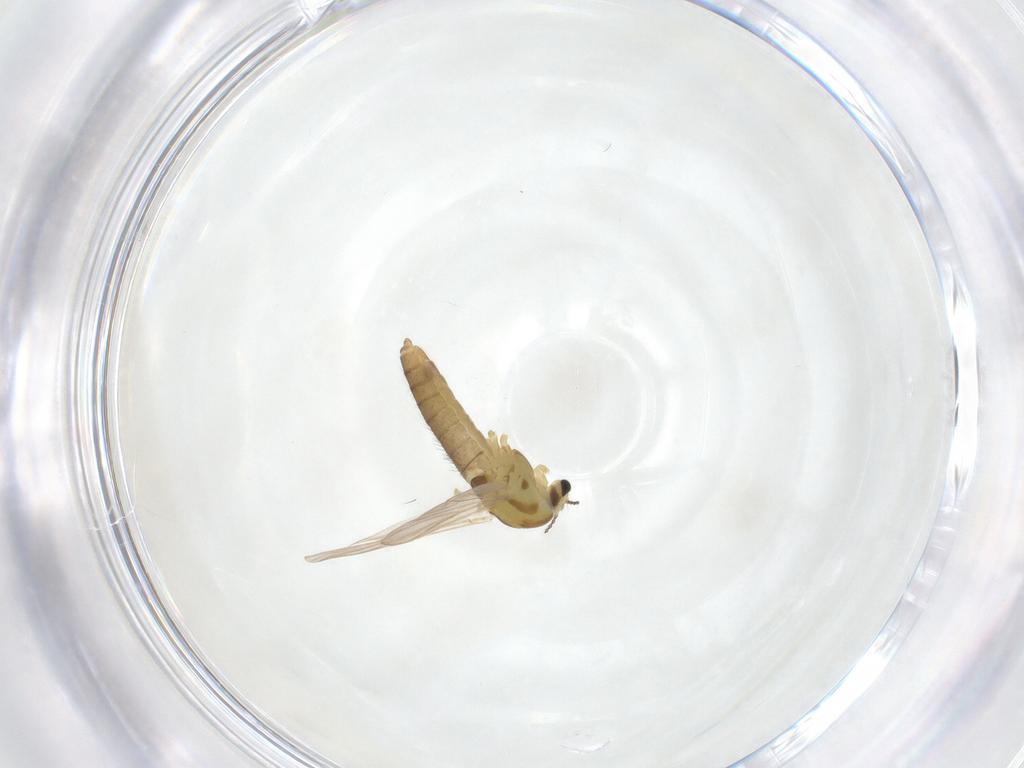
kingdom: Animalia
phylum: Arthropoda
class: Insecta
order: Diptera
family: Chironomidae
